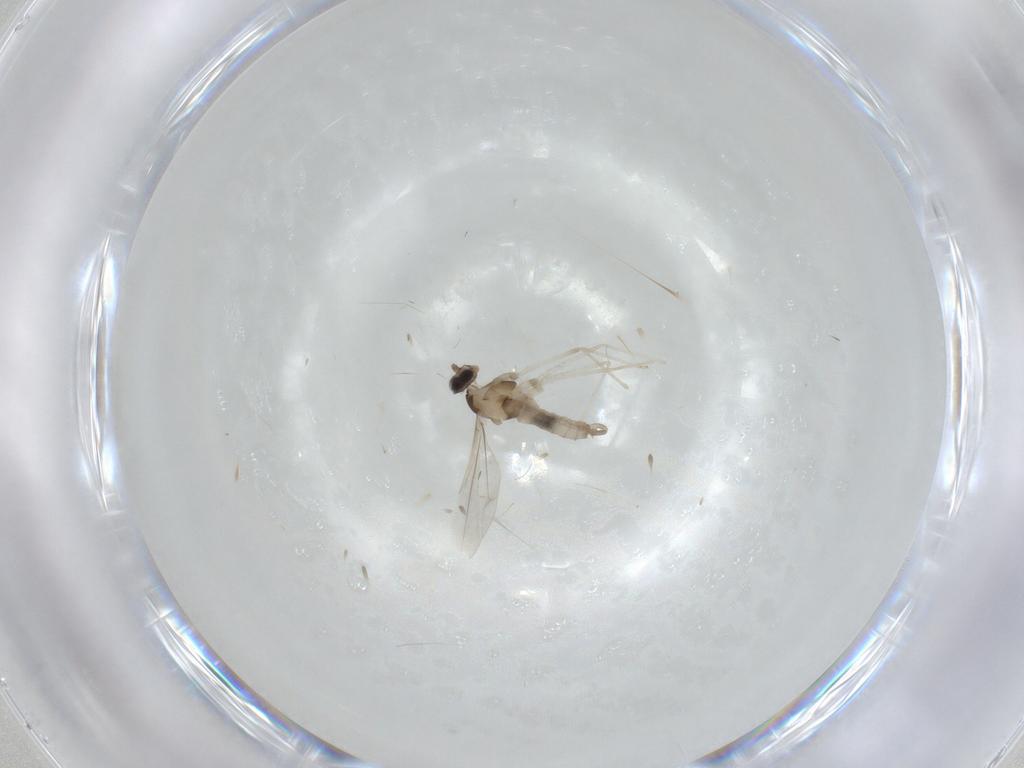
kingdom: Animalia
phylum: Arthropoda
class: Insecta
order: Diptera
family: Cecidomyiidae
